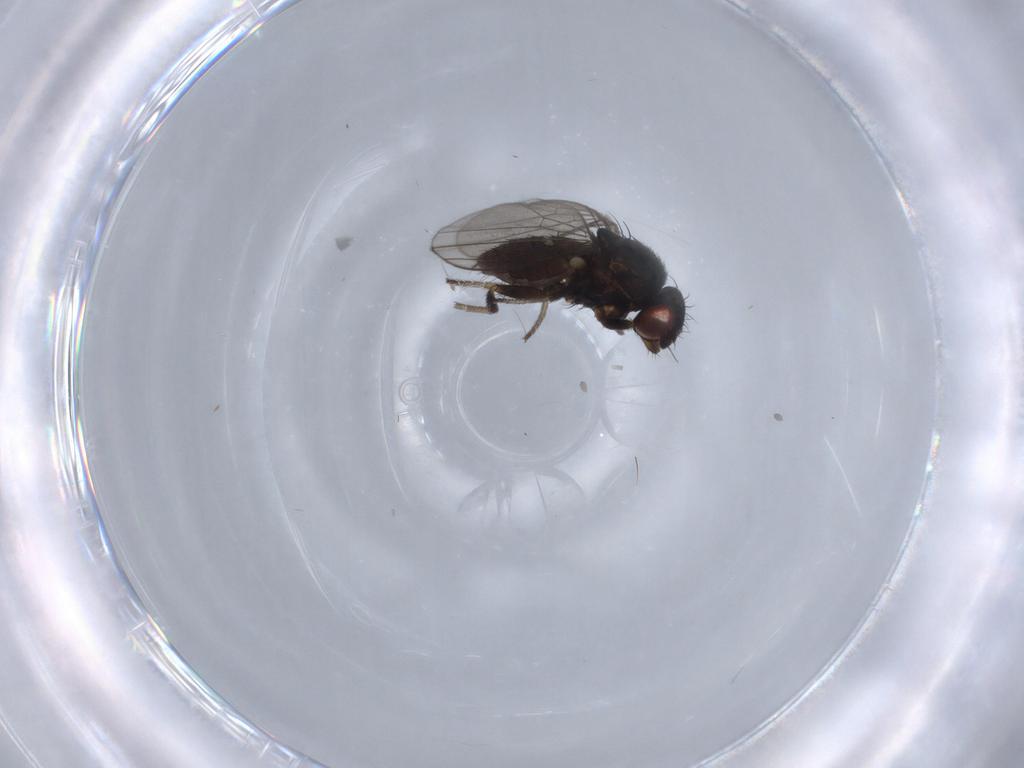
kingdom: Animalia
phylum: Arthropoda
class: Insecta
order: Diptera
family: Milichiidae
